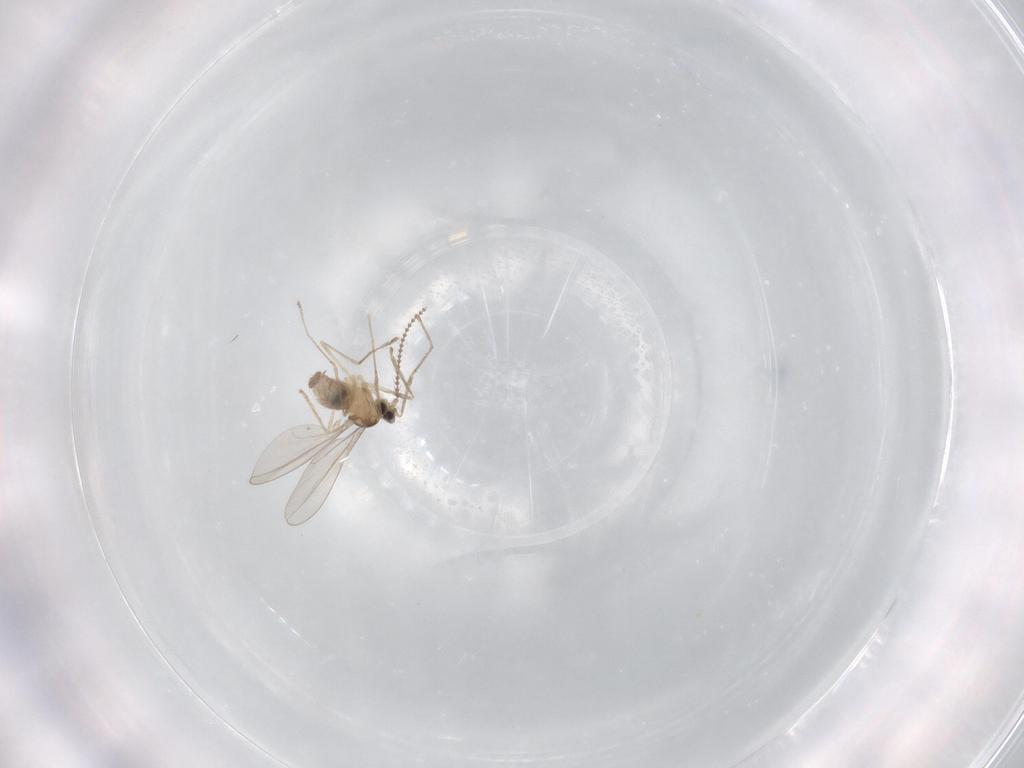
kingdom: Animalia
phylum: Arthropoda
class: Insecta
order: Diptera
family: Cecidomyiidae
